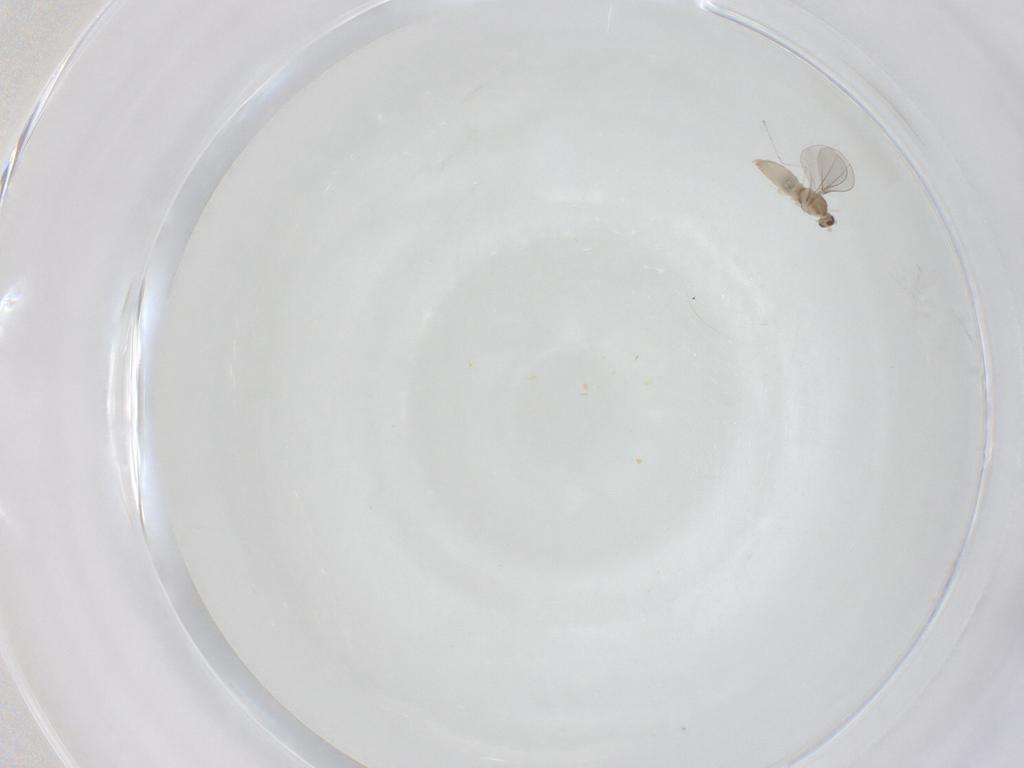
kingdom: Animalia
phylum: Arthropoda
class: Insecta
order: Diptera
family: Cecidomyiidae
